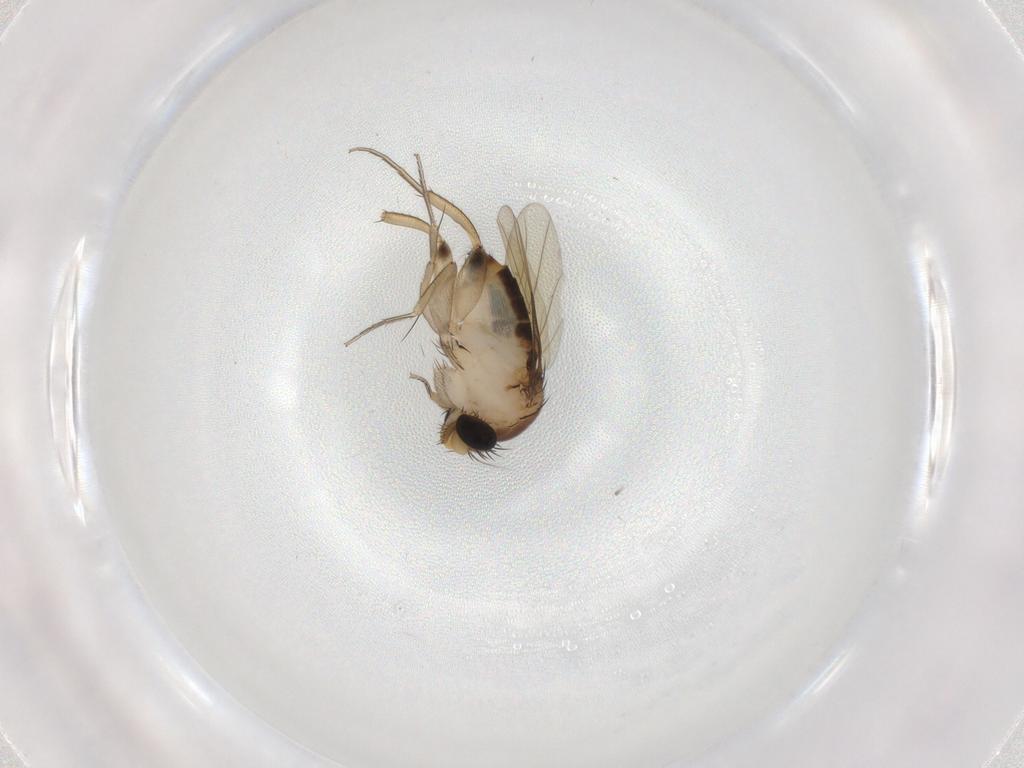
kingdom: Animalia
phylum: Arthropoda
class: Insecta
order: Diptera
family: Phoridae
